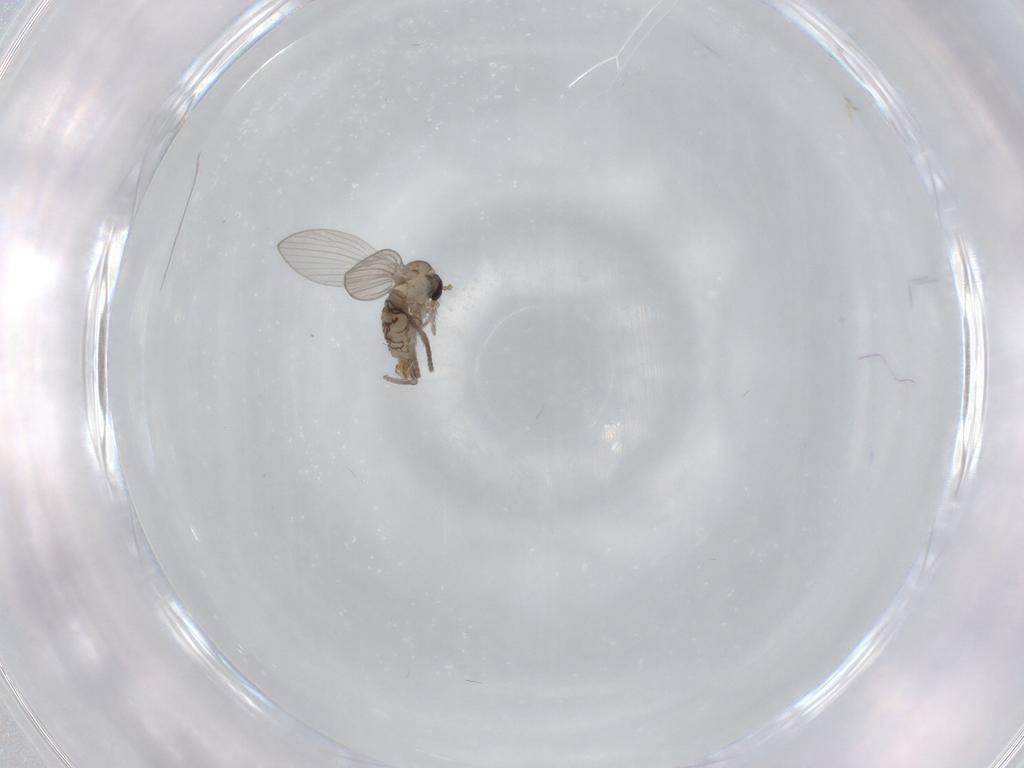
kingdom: Animalia
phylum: Arthropoda
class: Insecta
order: Diptera
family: Psychodidae
